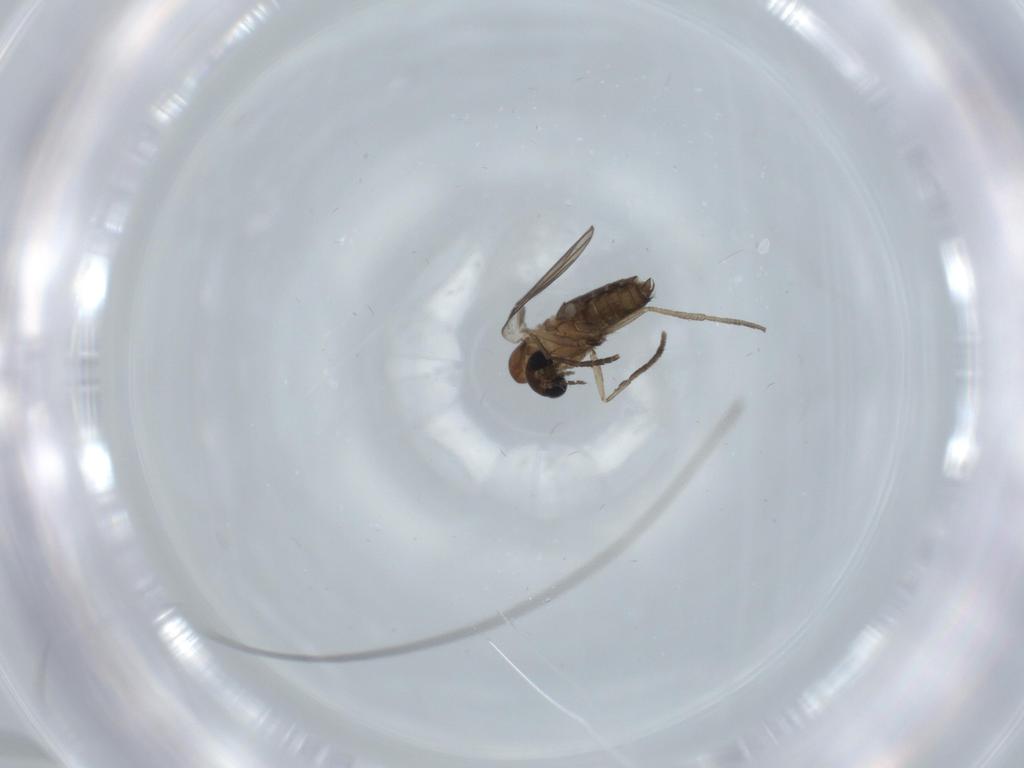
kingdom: Animalia
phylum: Arthropoda
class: Insecta
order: Diptera
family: Psychodidae
